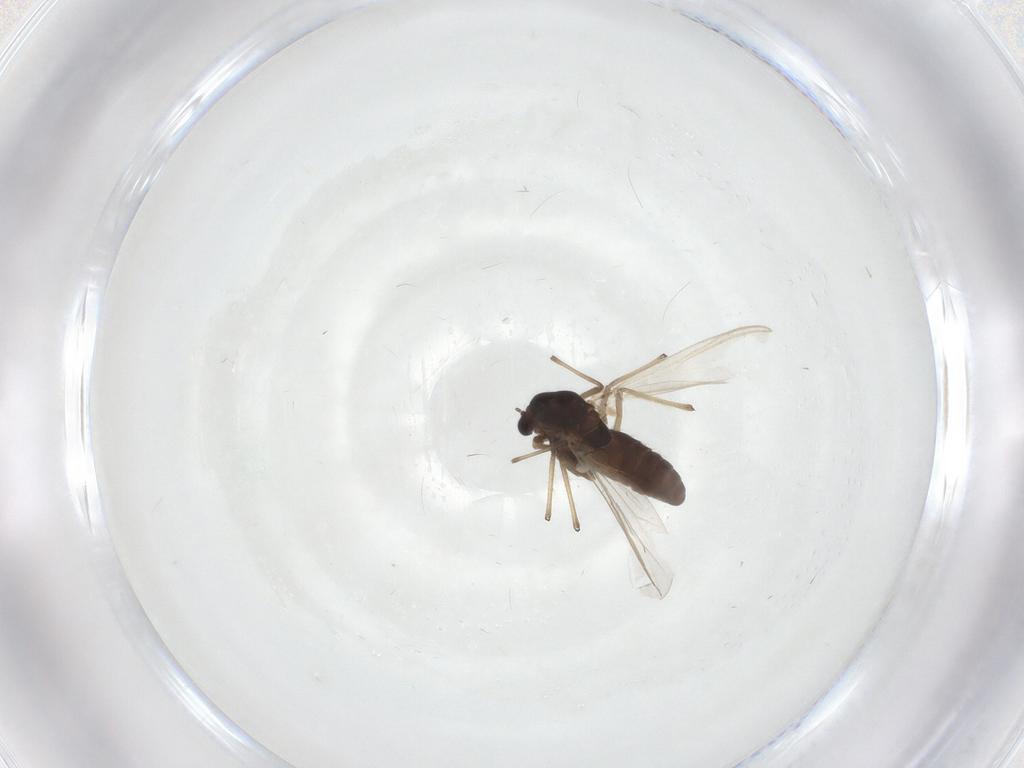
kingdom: Animalia
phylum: Arthropoda
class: Insecta
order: Diptera
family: Chironomidae
